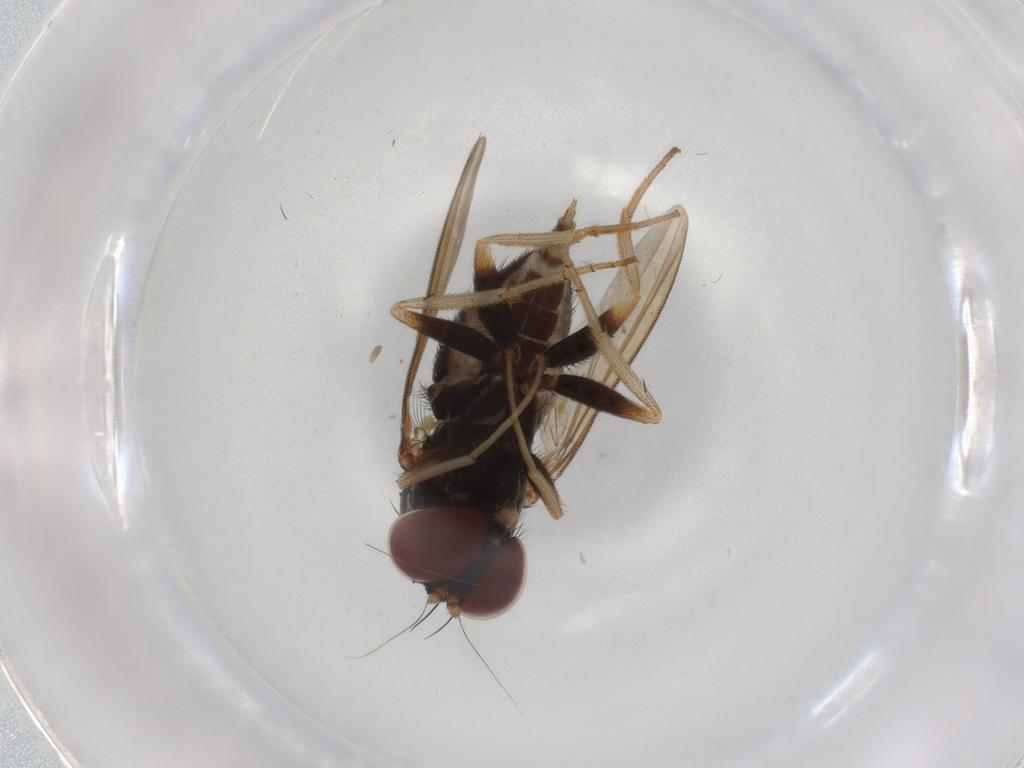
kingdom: Animalia
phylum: Arthropoda
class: Insecta
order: Diptera
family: Dolichopodidae
